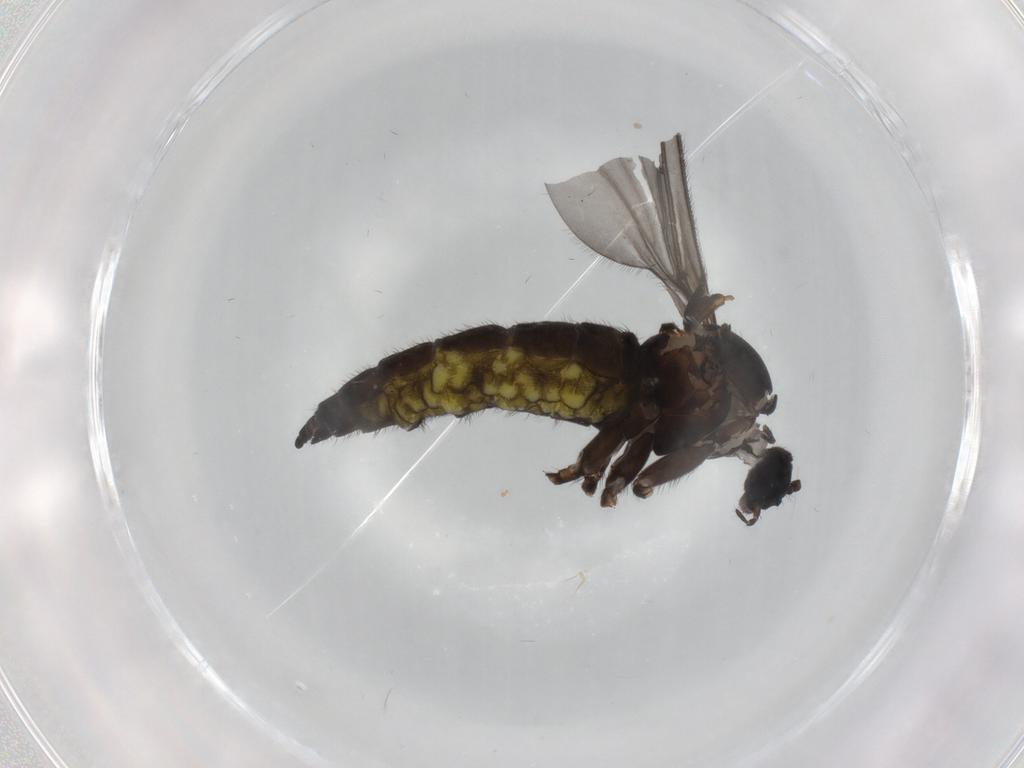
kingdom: Animalia
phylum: Arthropoda
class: Insecta
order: Diptera
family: Sciaridae
